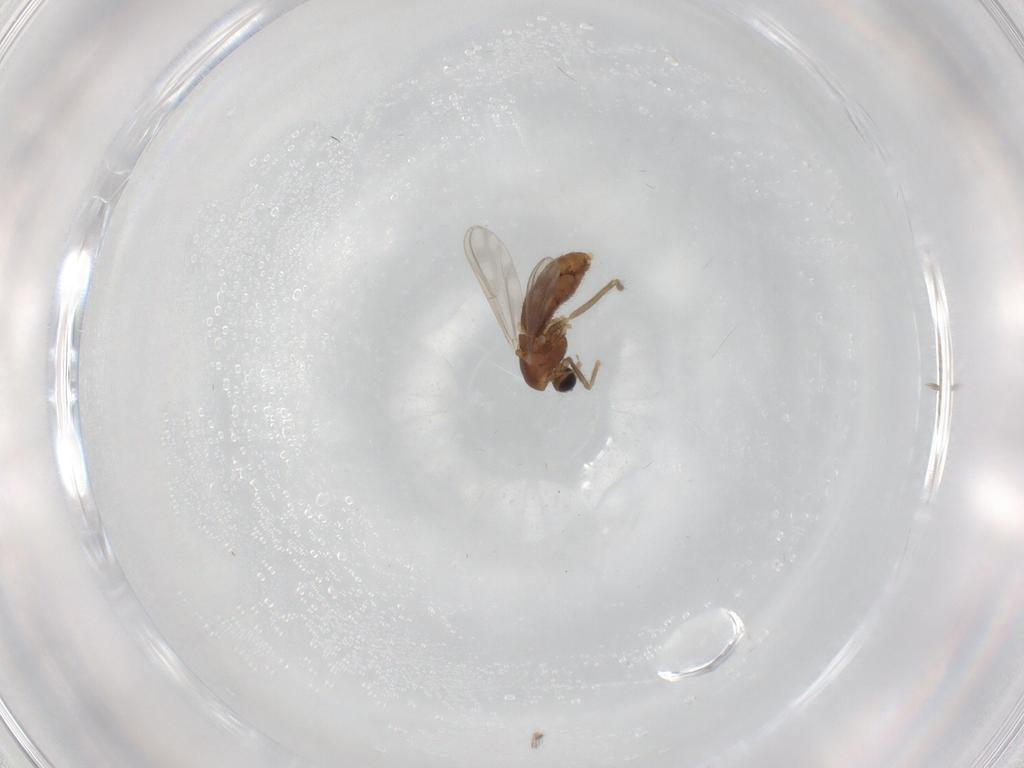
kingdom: Animalia
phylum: Arthropoda
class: Insecta
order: Diptera
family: Chironomidae
